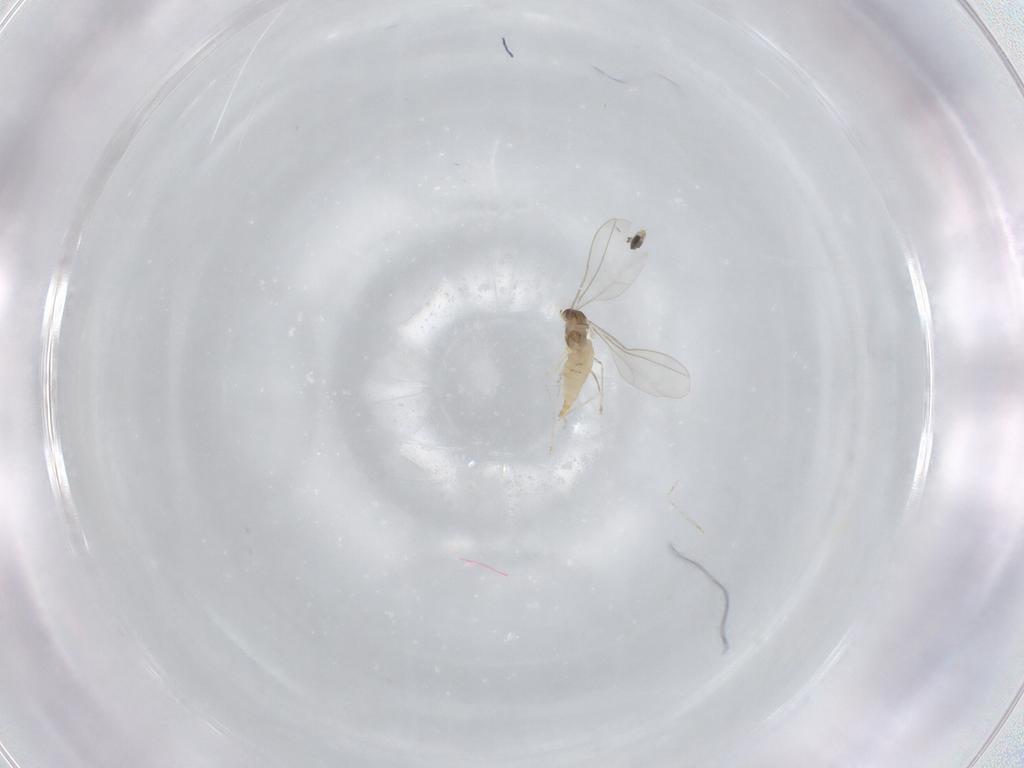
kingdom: Animalia
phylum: Arthropoda
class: Insecta
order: Diptera
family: Cecidomyiidae
